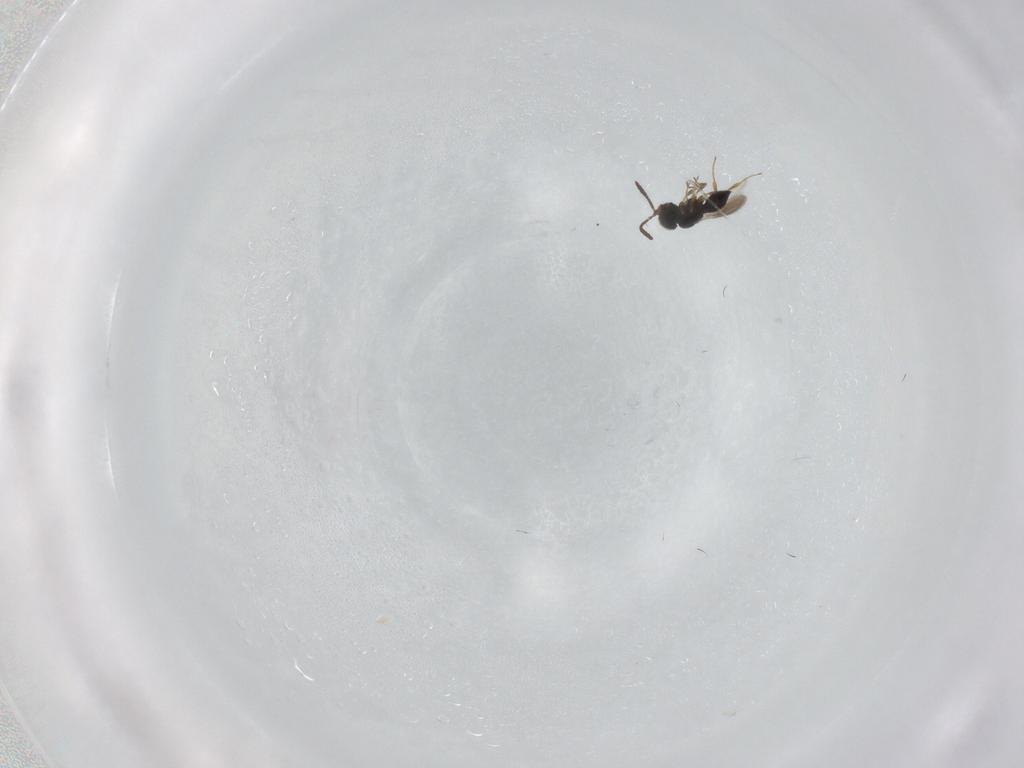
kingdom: Animalia
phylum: Arthropoda
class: Insecta
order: Hymenoptera
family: Scelionidae
